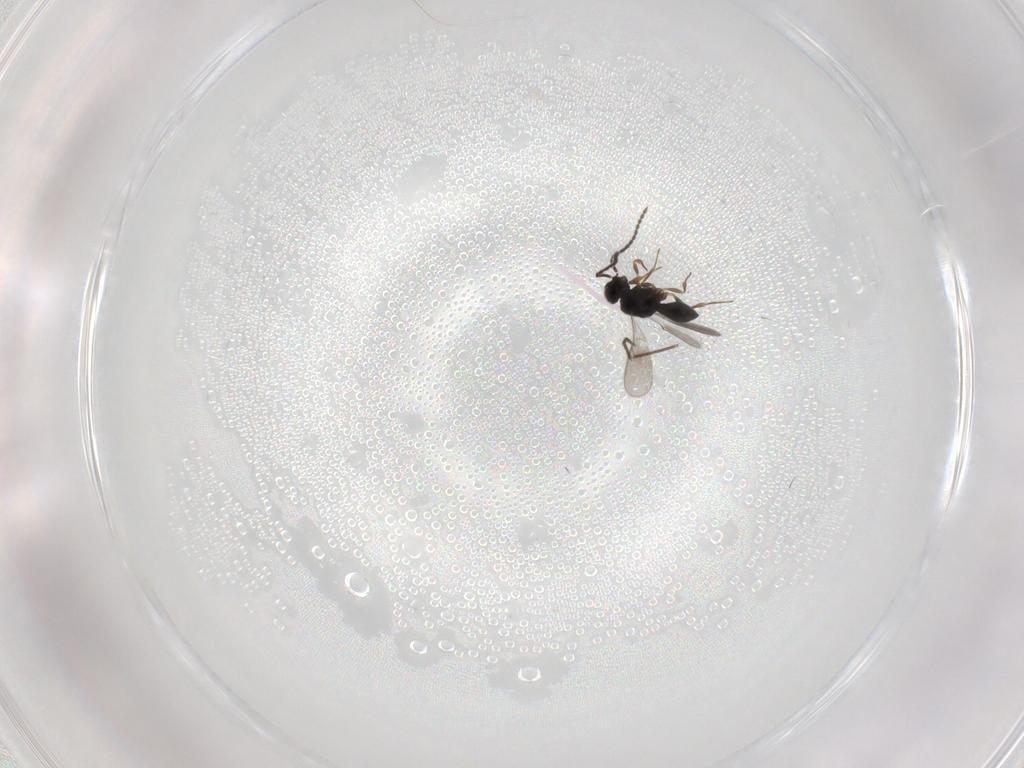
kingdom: Animalia
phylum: Arthropoda
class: Insecta
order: Hymenoptera
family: Scelionidae
